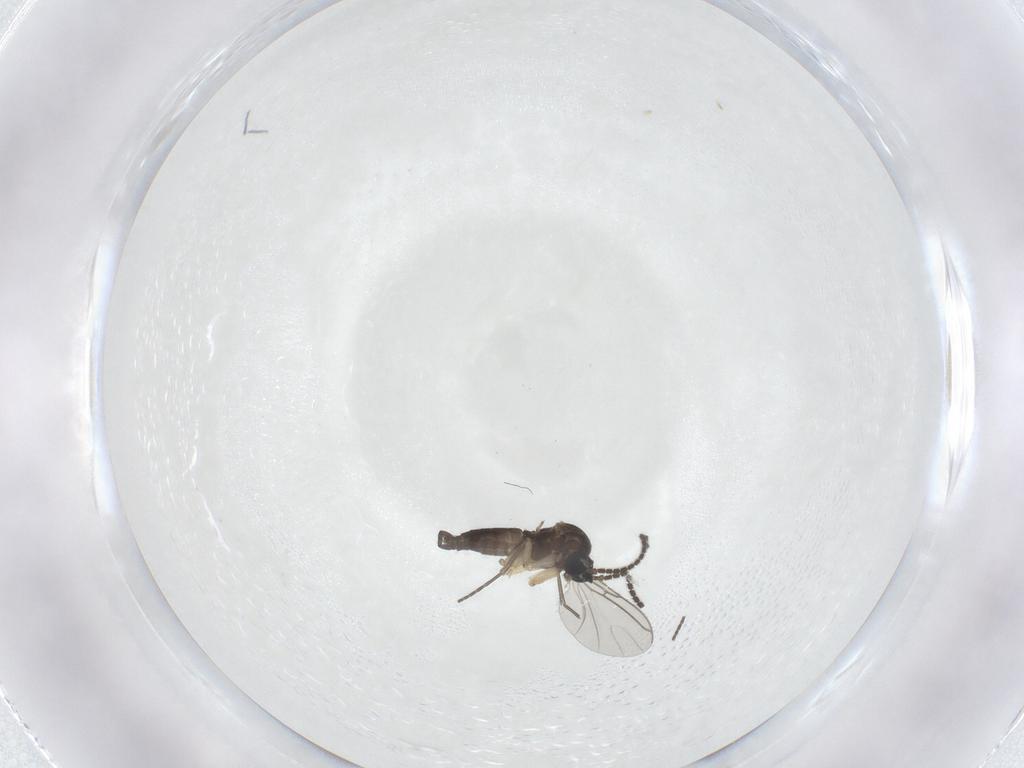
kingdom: Animalia
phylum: Arthropoda
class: Insecta
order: Diptera
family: Sciaridae
